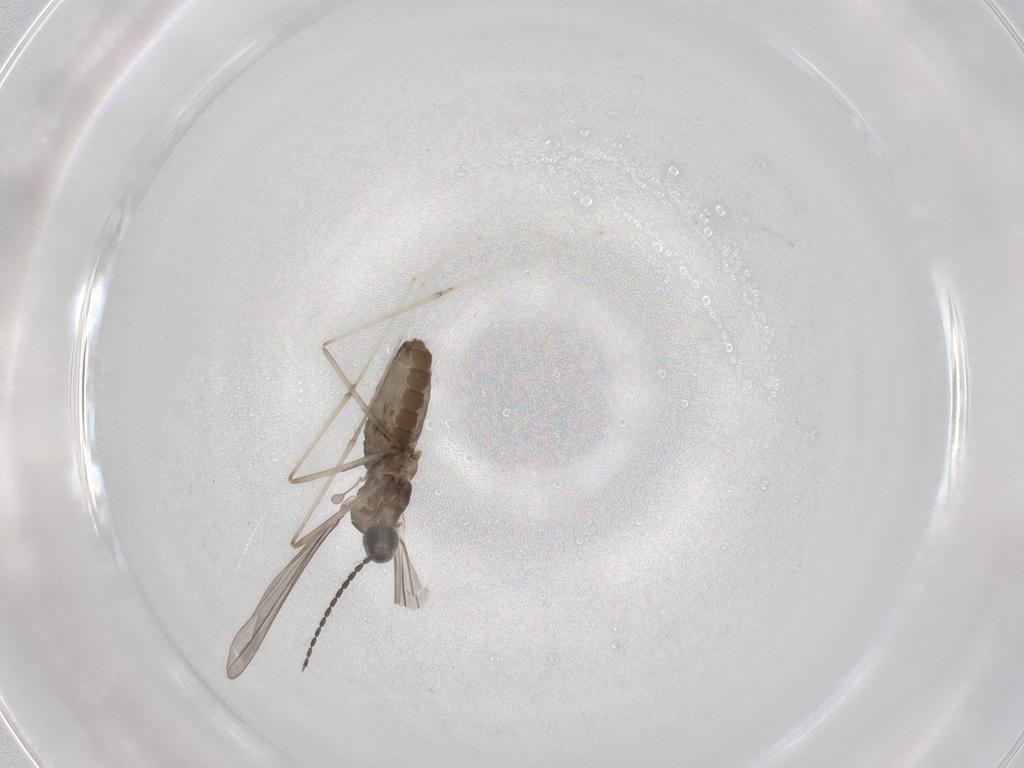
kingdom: Animalia
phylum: Arthropoda
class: Insecta
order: Diptera
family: Cecidomyiidae
